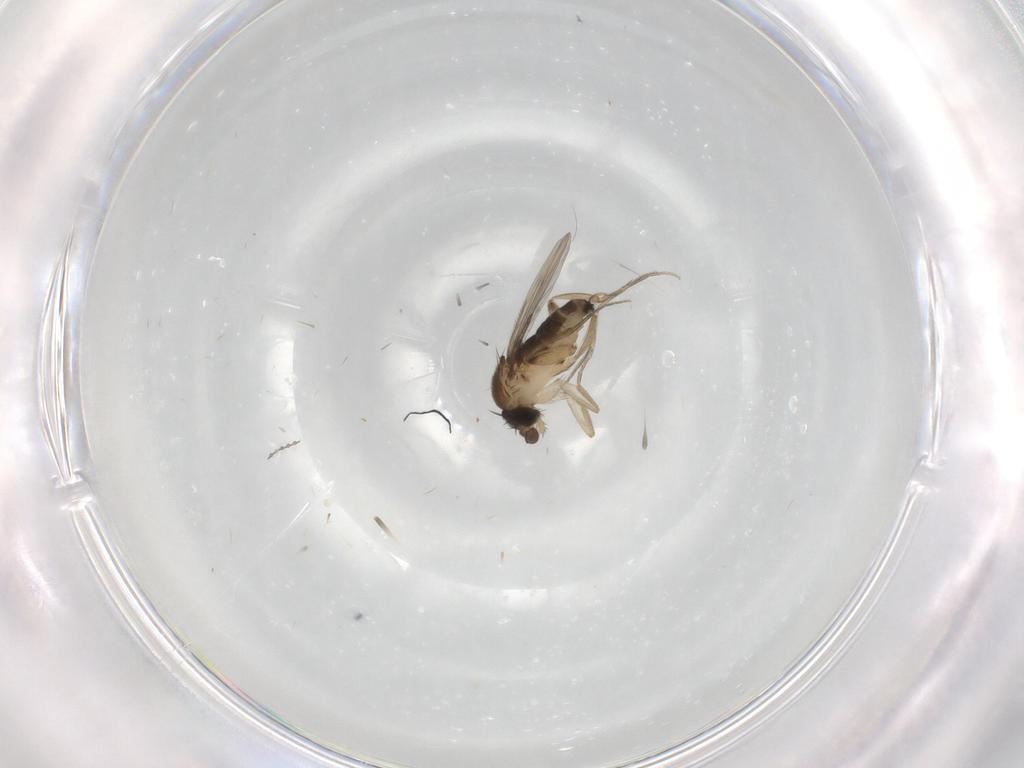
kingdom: Animalia
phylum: Arthropoda
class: Insecta
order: Diptera
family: Phoridae
